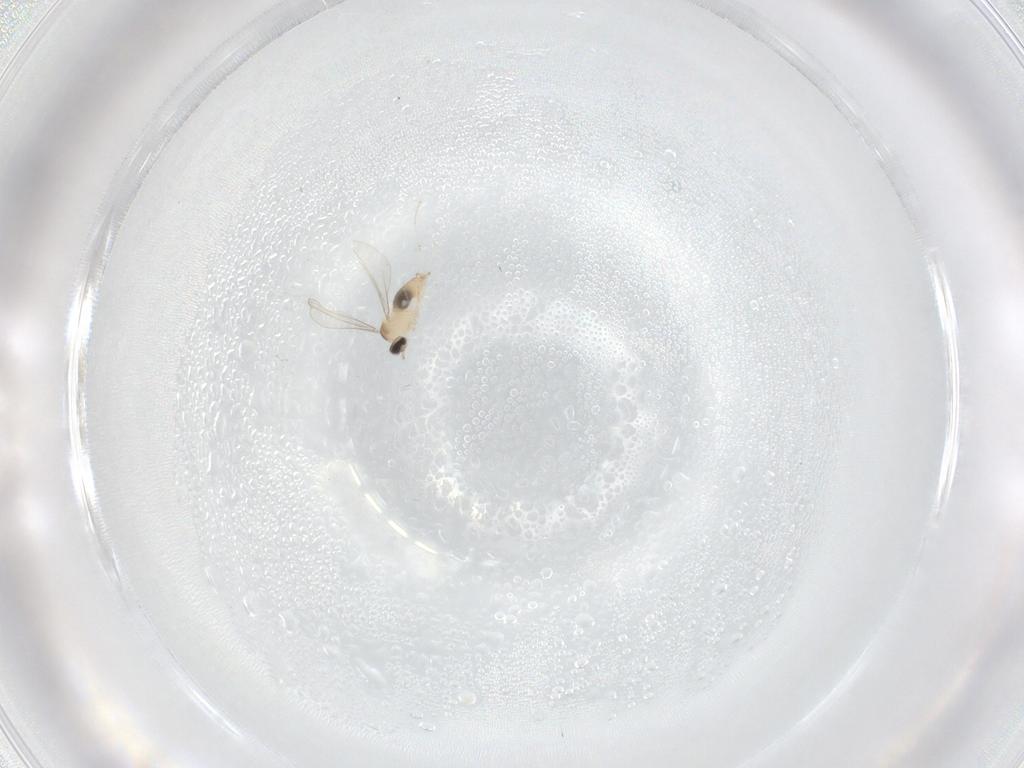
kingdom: Animalia
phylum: Arthropoda
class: Insecta
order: Diptera
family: Cecidomyiidae
